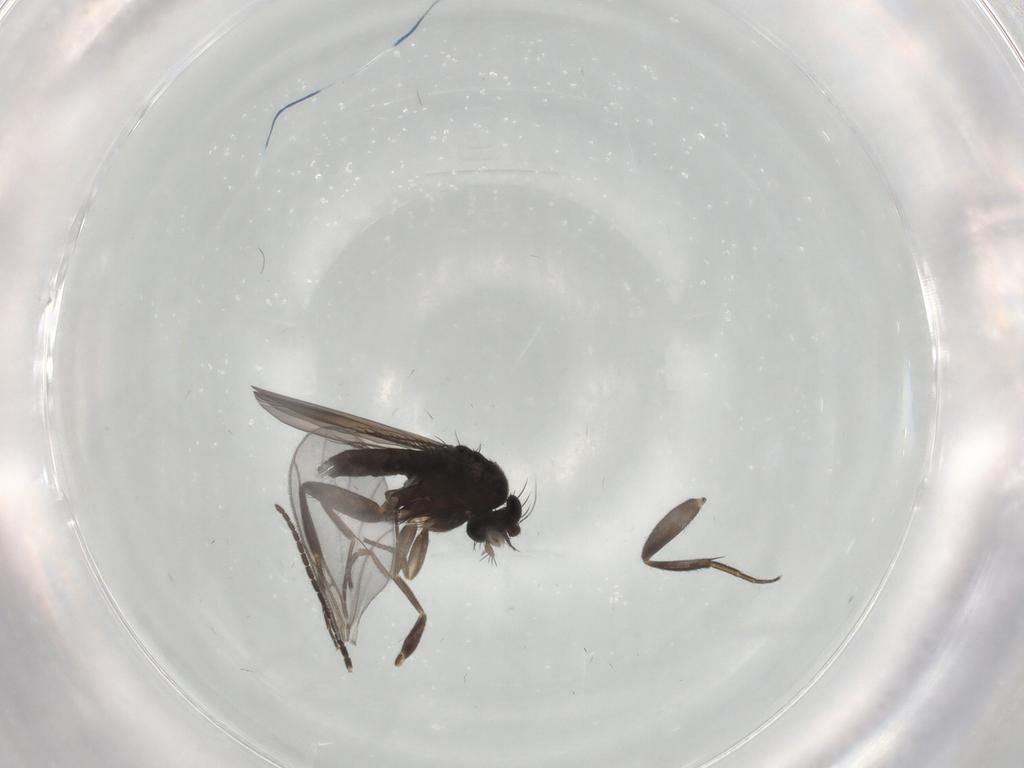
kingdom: Animalia
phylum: Arthropoda
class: Insecta
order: Diptera
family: Phoridae
